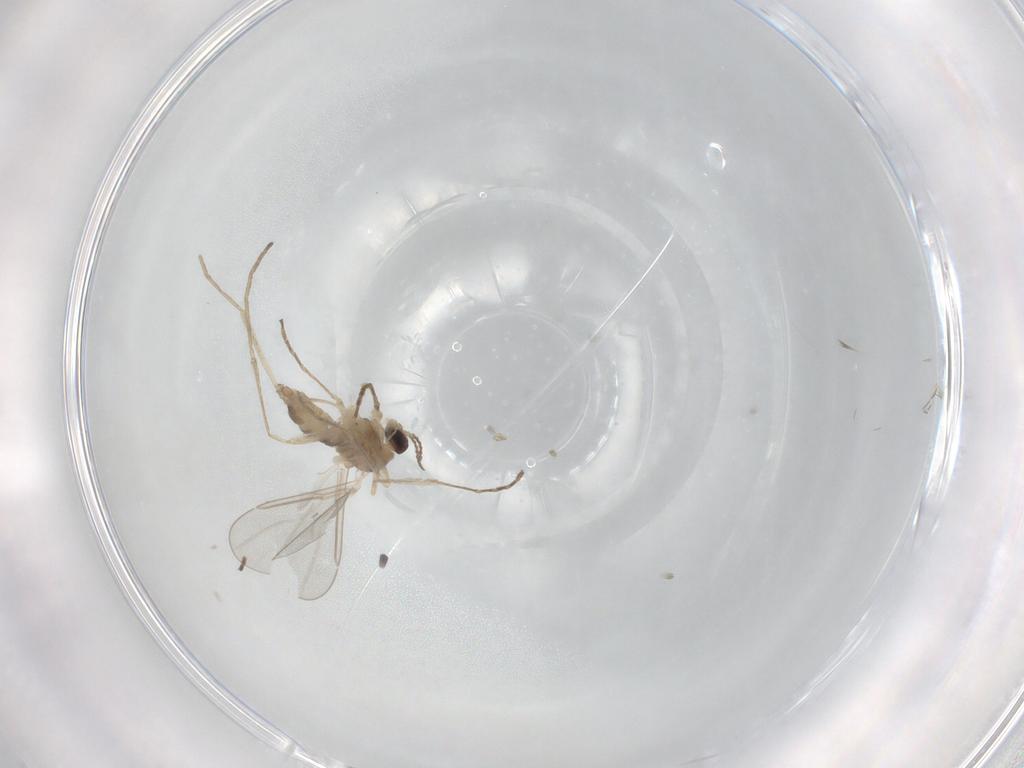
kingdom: Animalia
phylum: Arthropoda
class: Insecta
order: Diptera
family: Cecidomyiidae
